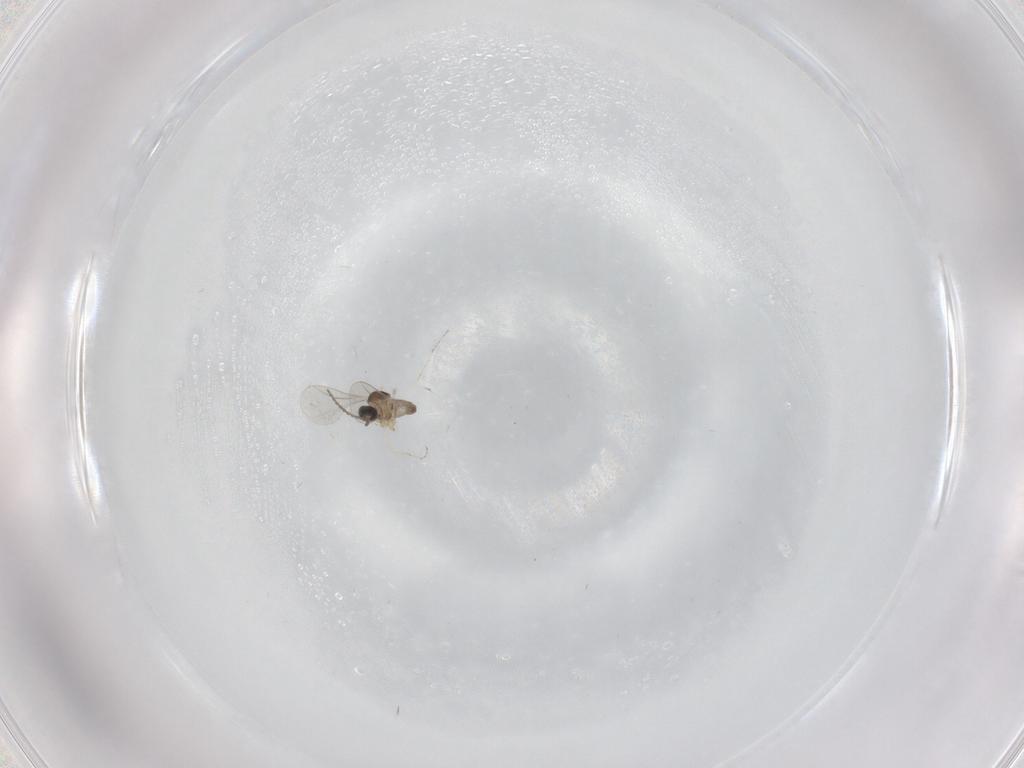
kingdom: Animalia
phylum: Arthropoda
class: Insecta
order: Diptera
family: Cecidomyiidae
